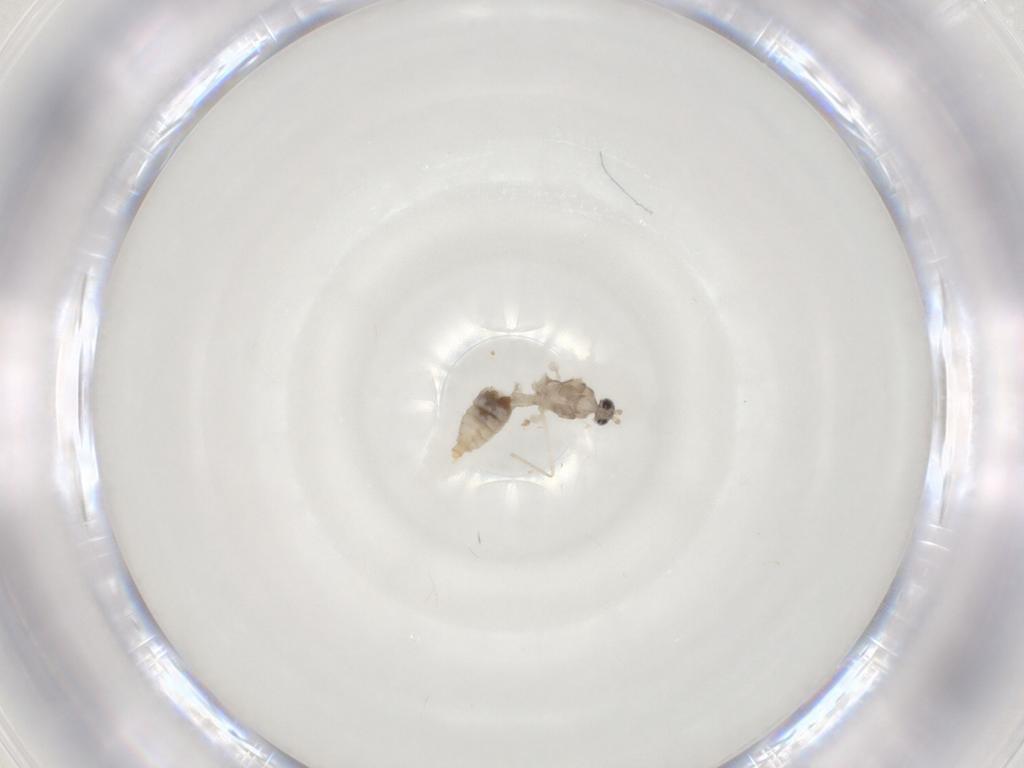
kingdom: Animalia
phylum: Arthropoda
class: Insecta
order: Diptera
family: Cecidomyiidae
